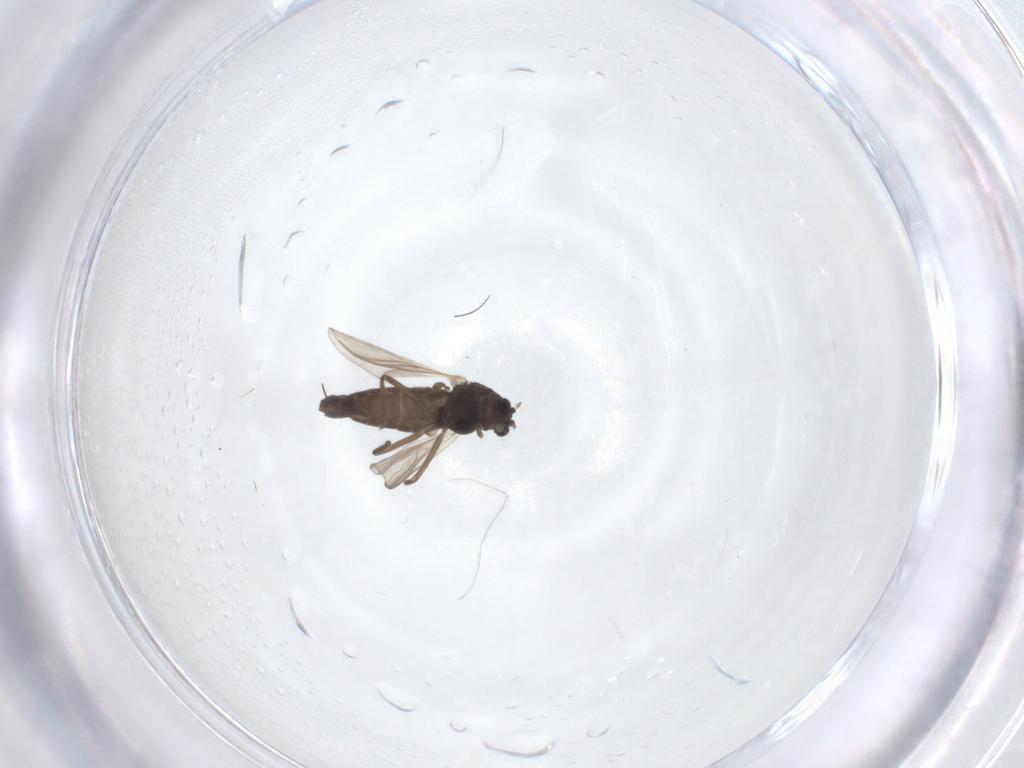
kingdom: Animalia
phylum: Arthropoda
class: Insecta
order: Diptera
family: Chironomidae
